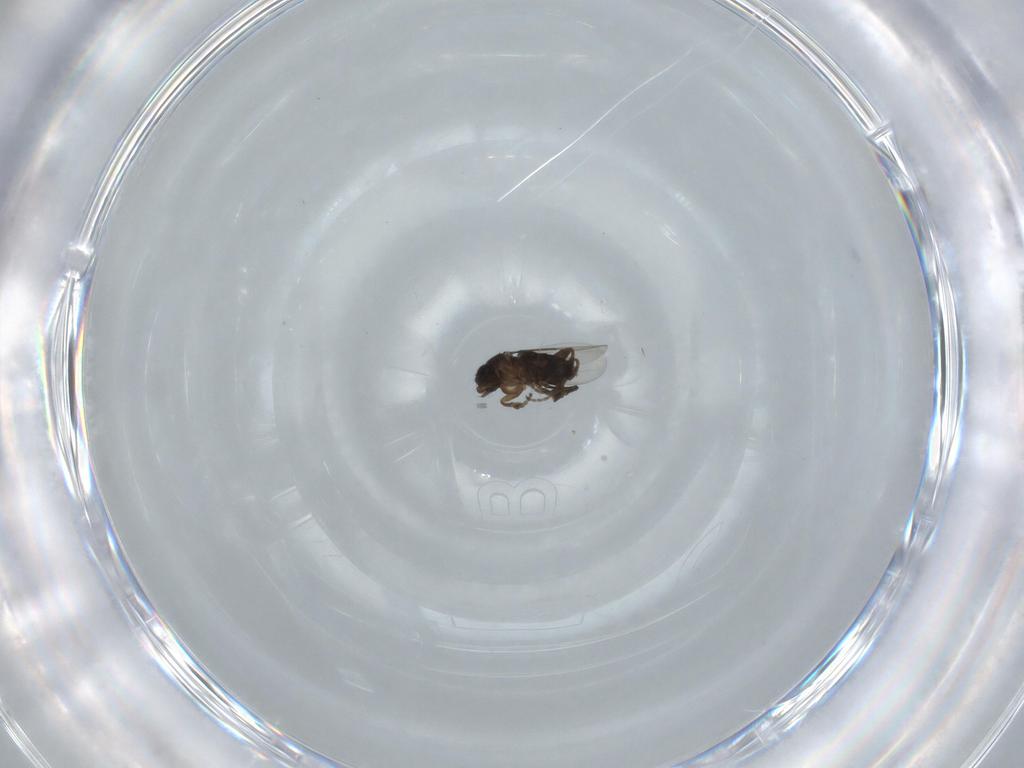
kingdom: Animalia
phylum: Arthropoda
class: Insecta
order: Diptera
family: Phoridae
